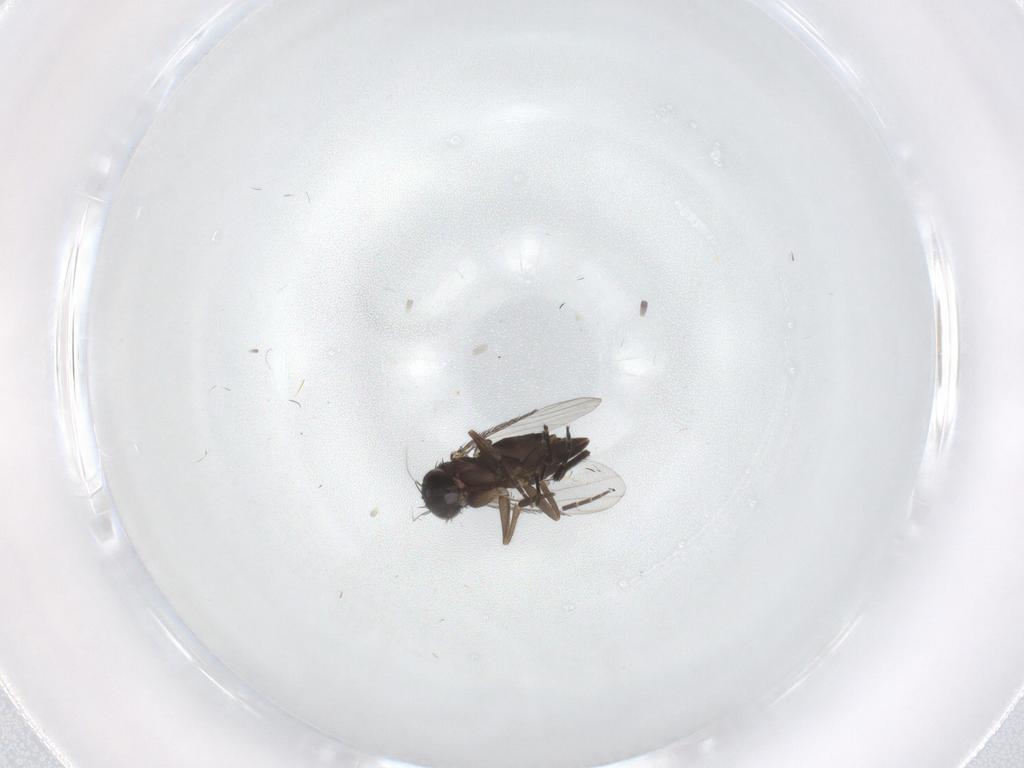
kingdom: Animalia
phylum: Arthropoda
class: Insecta
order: Diptera
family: Phoridae
